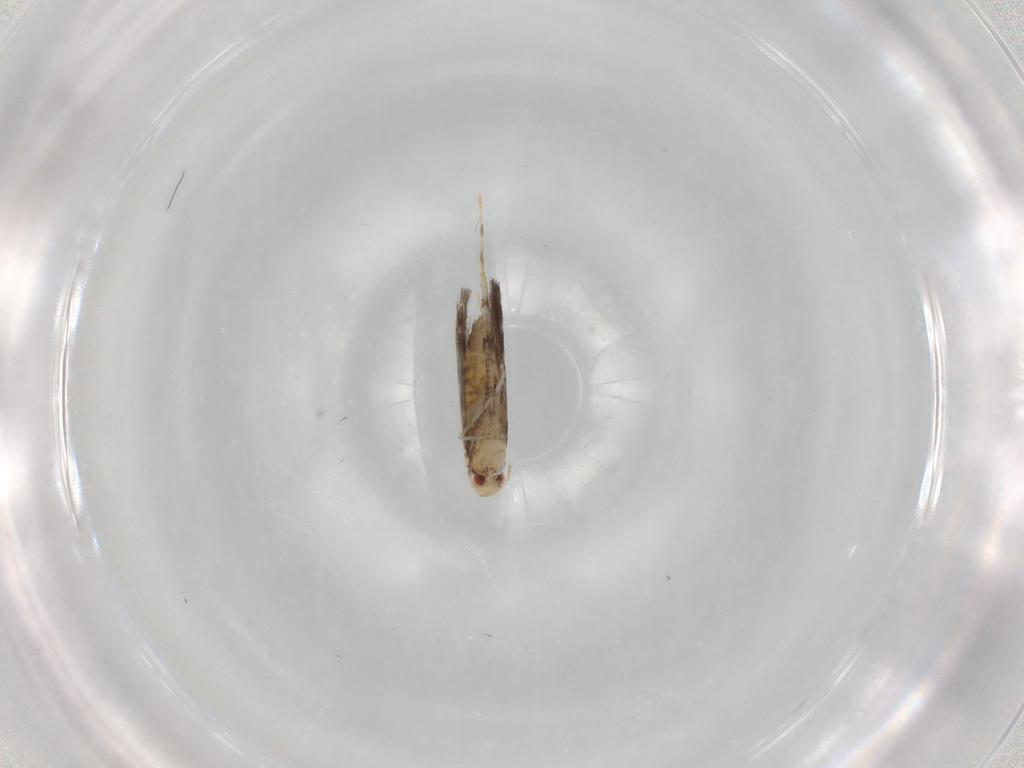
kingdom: Animalia
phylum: Arthropoda
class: Insecta
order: Lepidoptera
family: Gracillariidae
